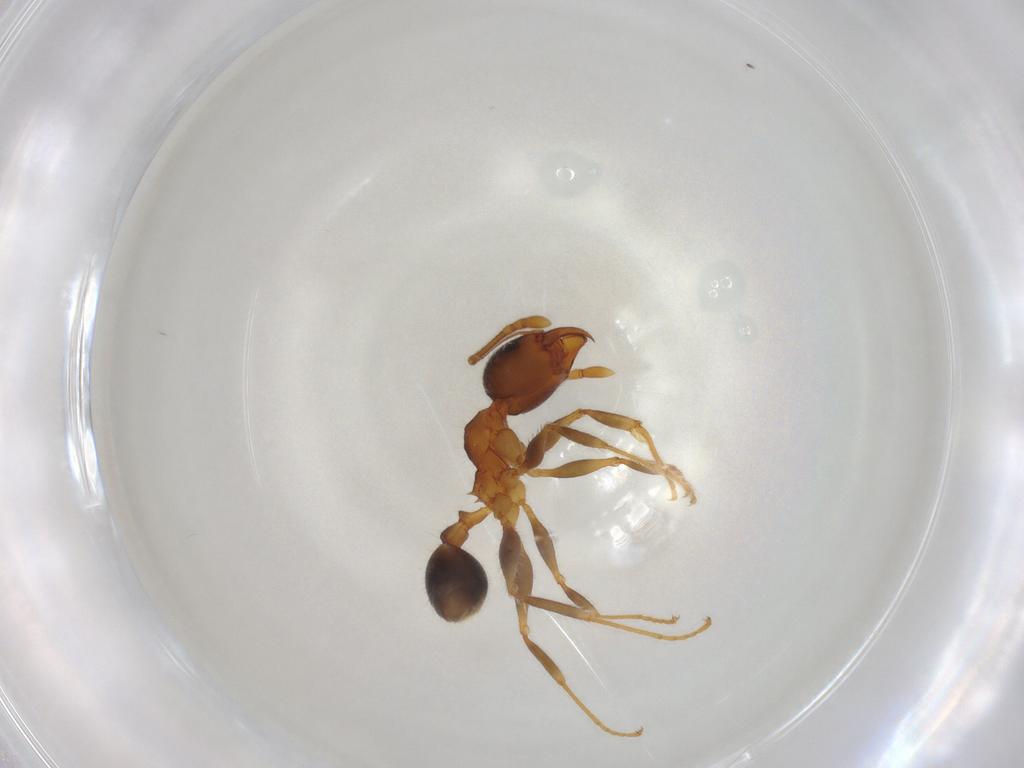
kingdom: Animalia
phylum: Arthropoda
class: Insecta
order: Hymenoptera
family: Formicidae
